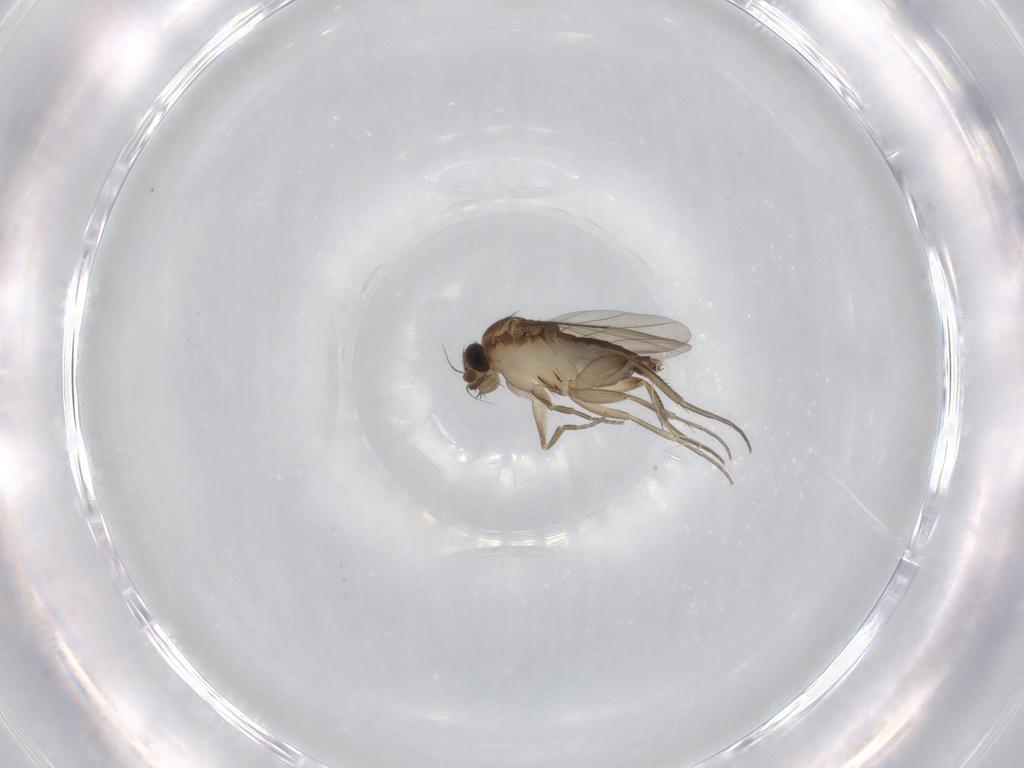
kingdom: Animalia
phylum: Arthropoda
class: Insecta
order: Diptera
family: Phoridae
